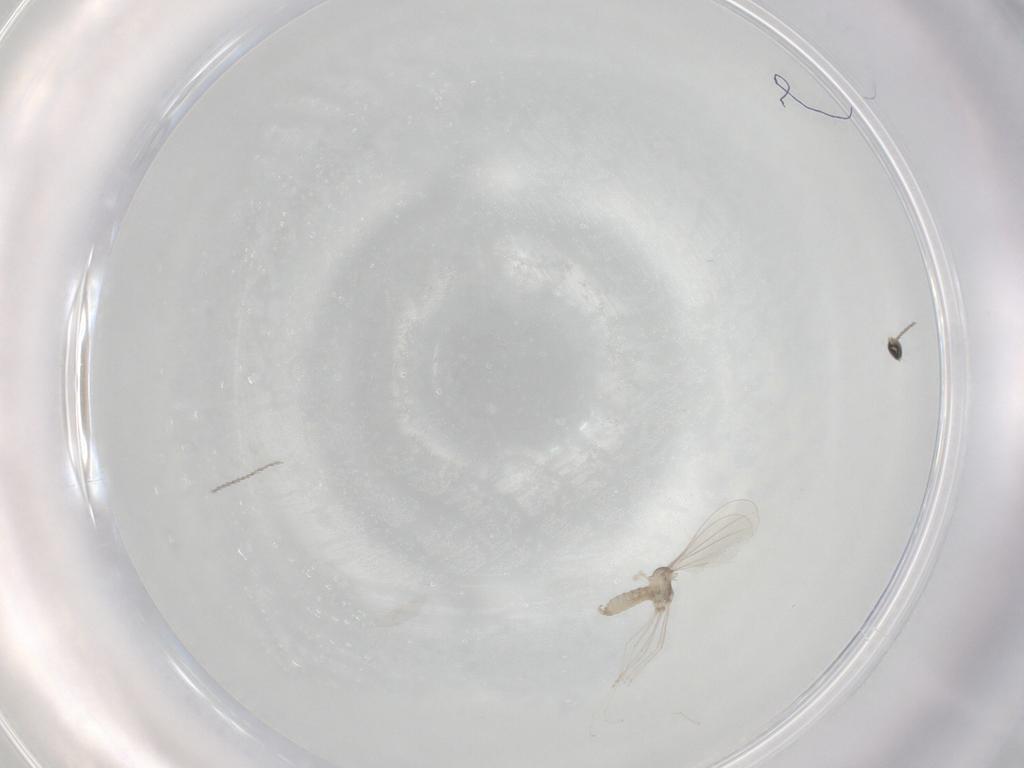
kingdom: Animalia
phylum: Arthropoda
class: Insecta
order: Diptera
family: Cecidomyiidae
